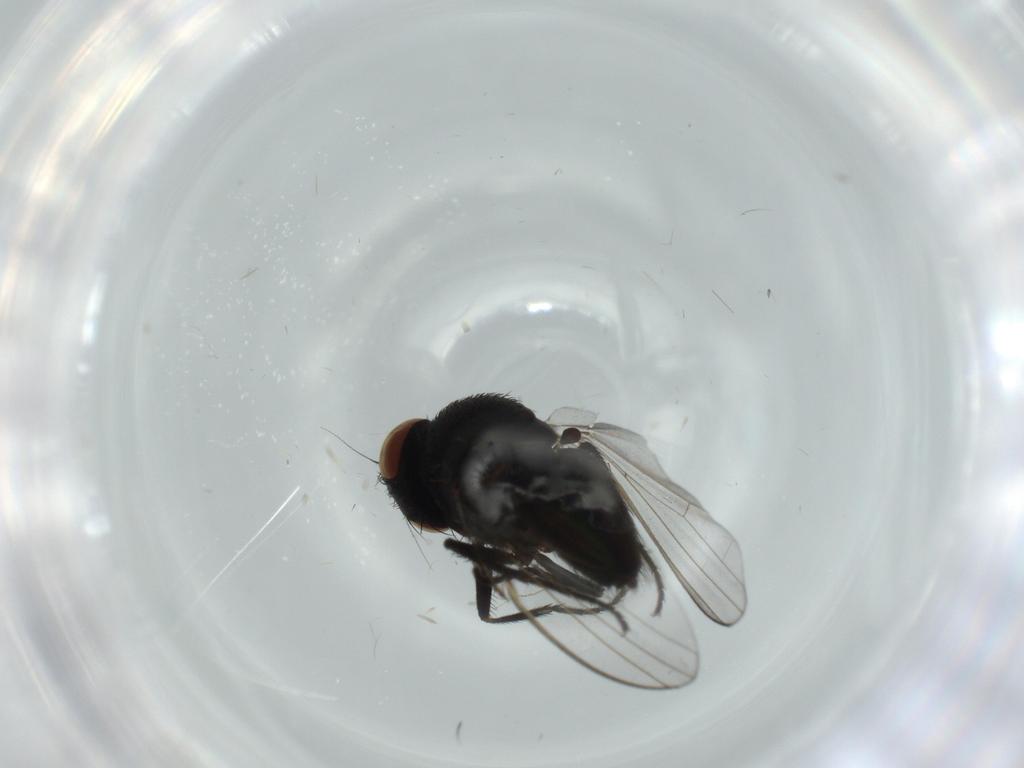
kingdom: Animalia
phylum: Arthropoda
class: Insecta
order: Diptera
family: Milichiidae
